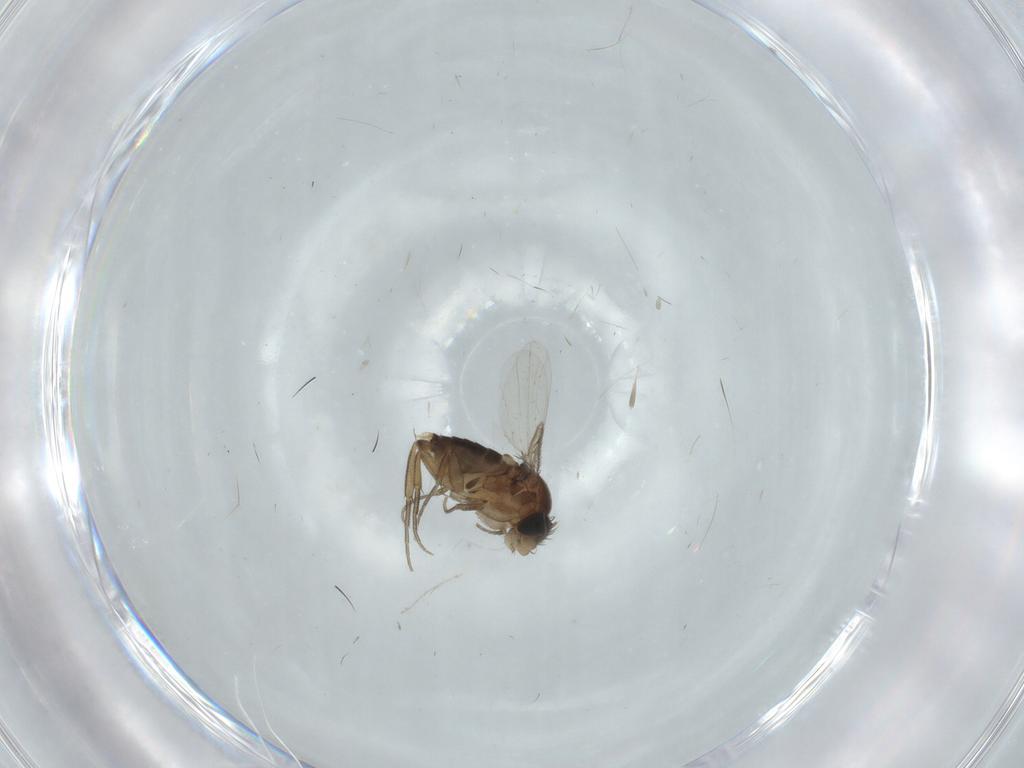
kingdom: Animalia
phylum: Arthropoda
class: Insecta
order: Diptera
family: Phoridae
